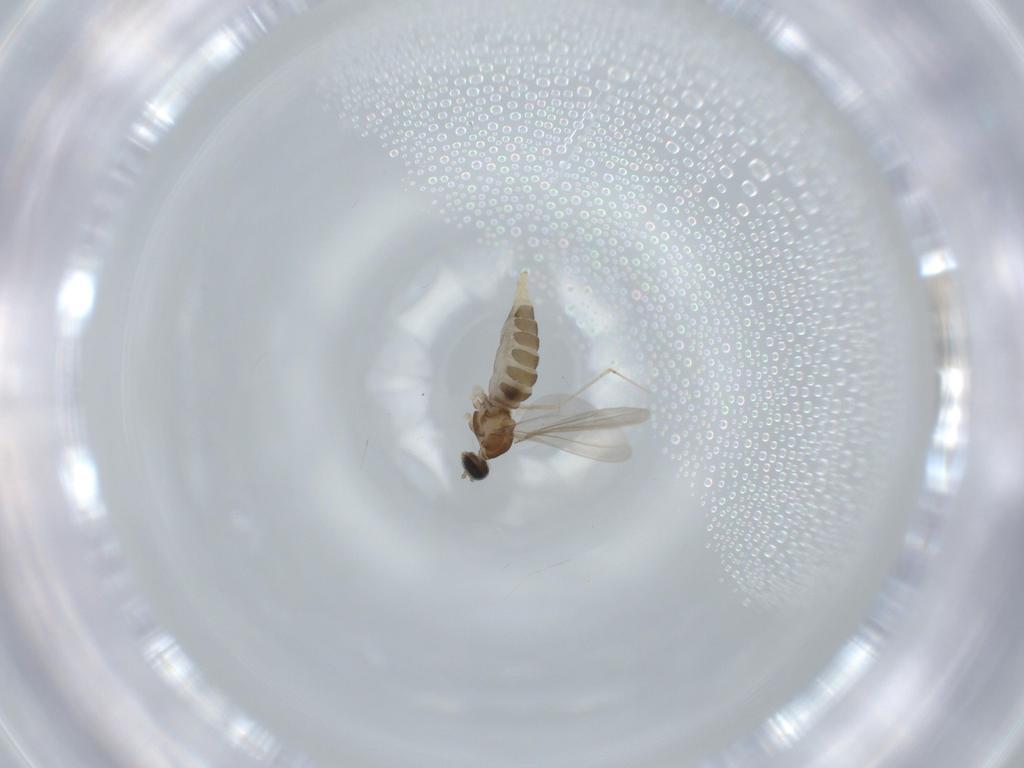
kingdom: Animalia
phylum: Arthropoda
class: Insecta
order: Diptera
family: Cecidomyiidae
